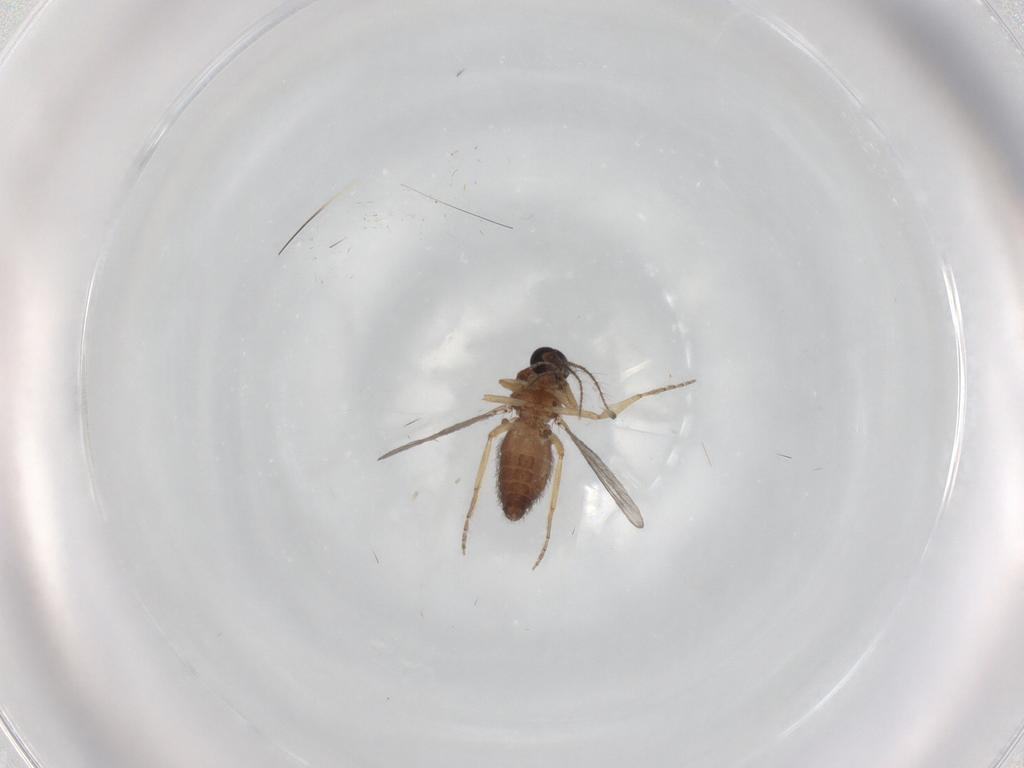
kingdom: Animalia
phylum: Arthropoda
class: Insecta
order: Diptera
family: Ceratopogonidae
